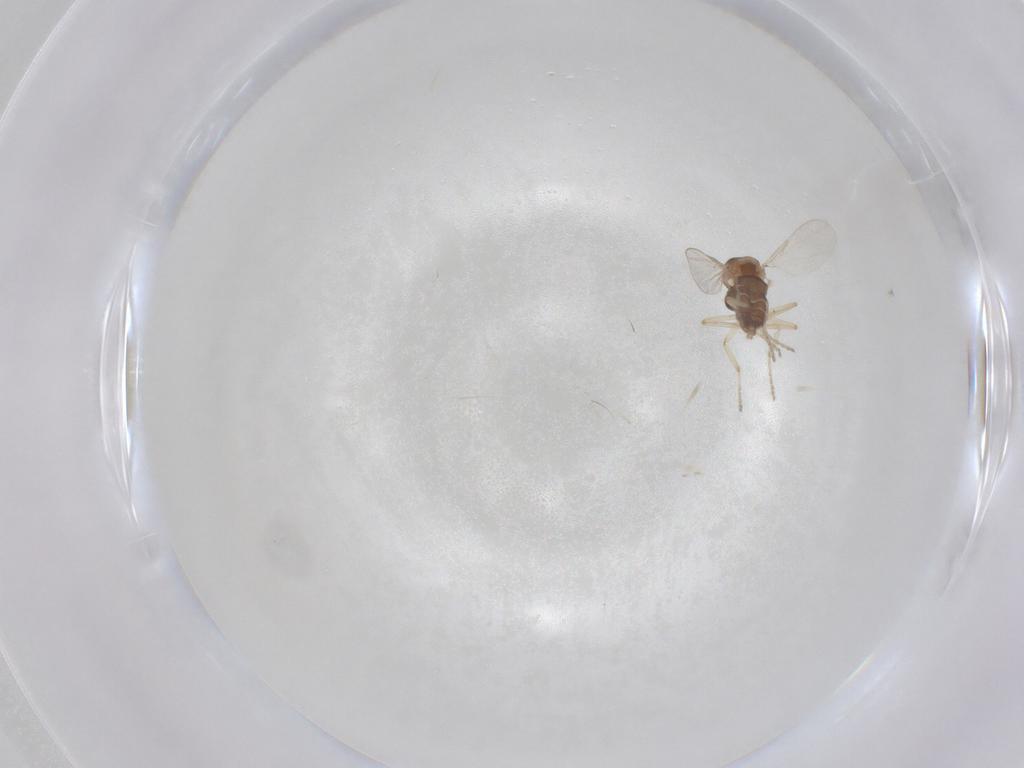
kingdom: Animalia
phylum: Arthropoda
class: Insecta
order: Diptera
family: Ceratopogonidae
